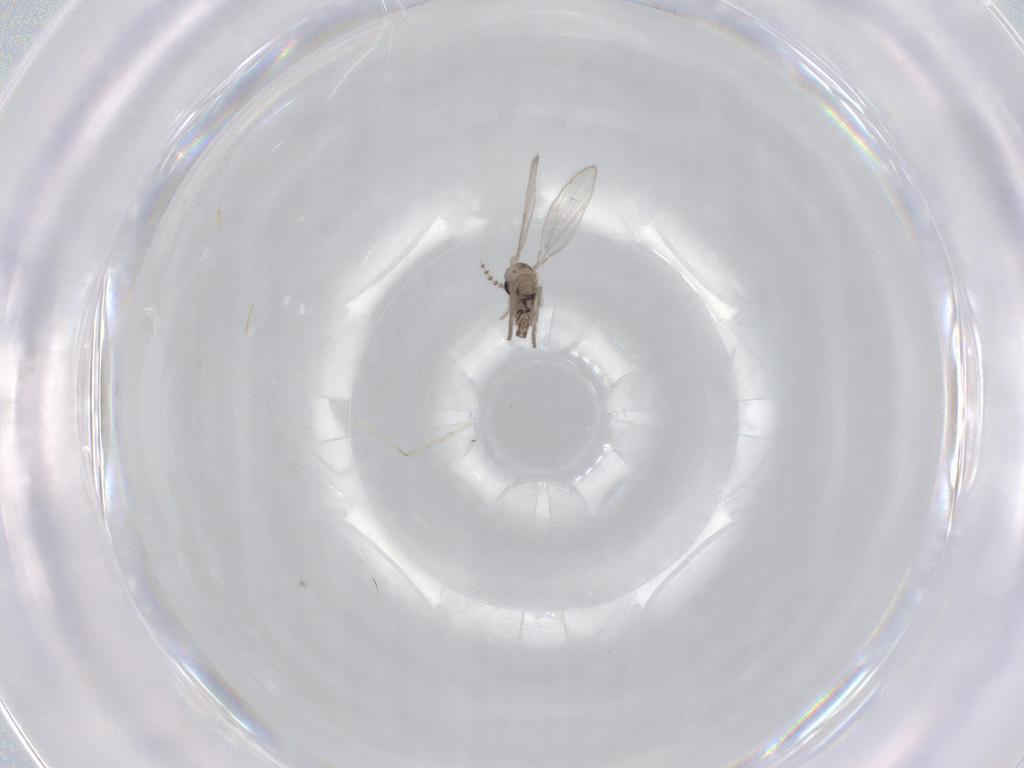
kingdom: Animalia
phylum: Arthropoda
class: Insecta
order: Diptera
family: Psychodidae
